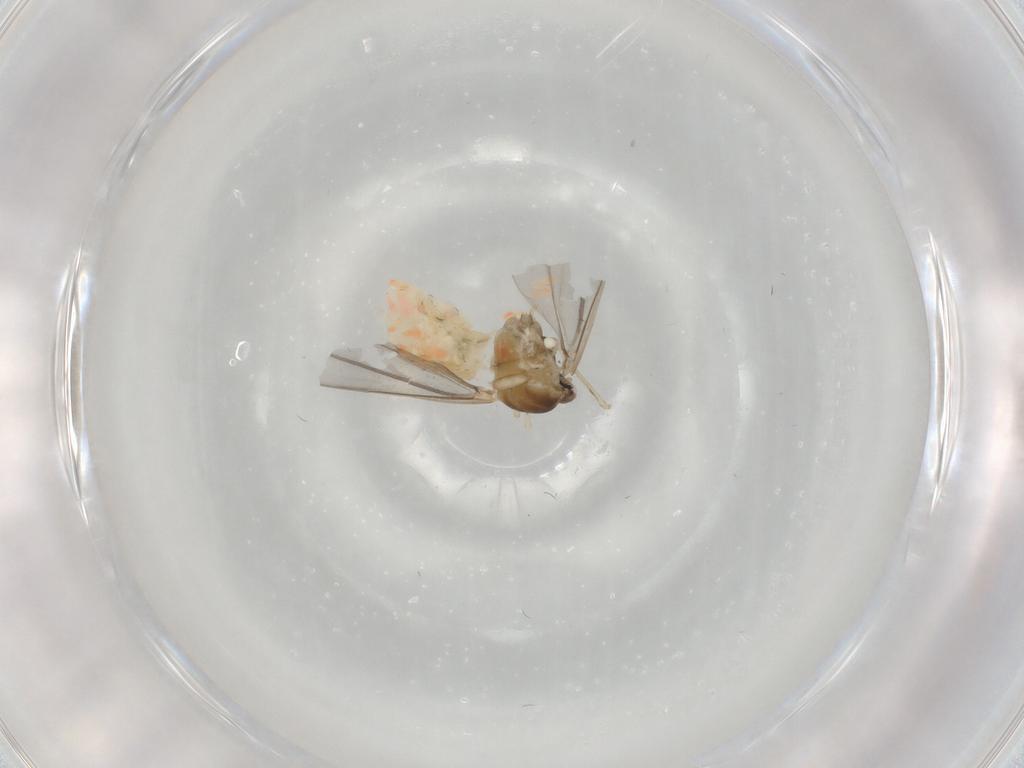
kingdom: Animalia
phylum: Arthropoda
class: Insecta
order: Diptera
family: Cecidomyiidae
